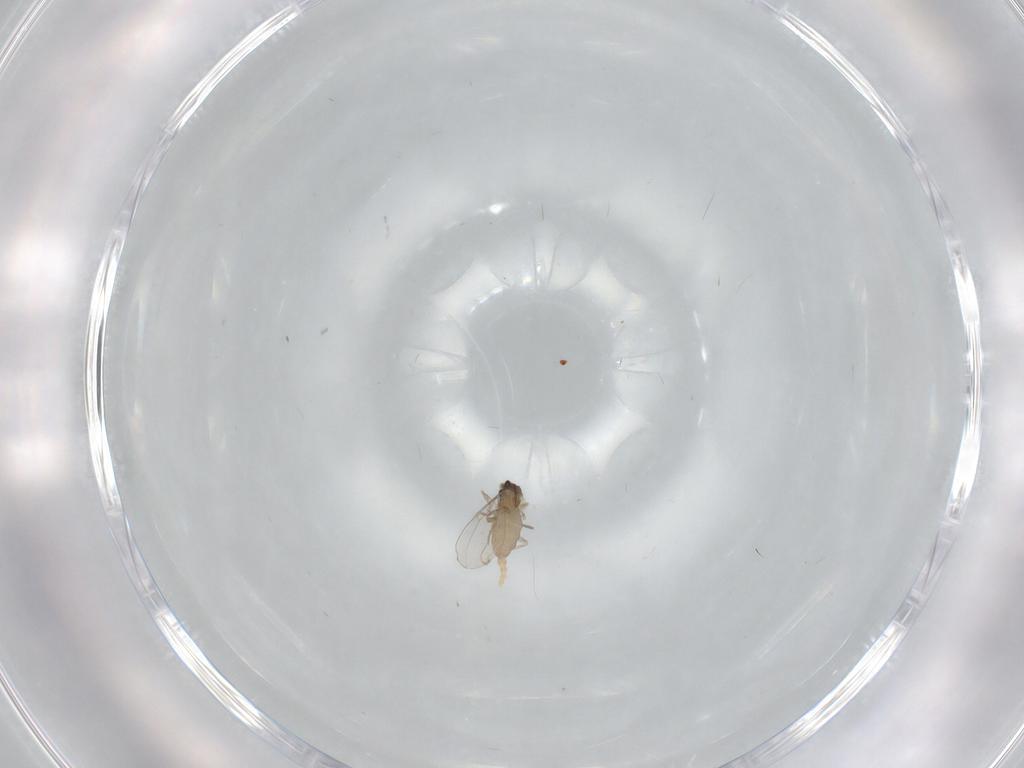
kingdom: Animalia
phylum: Arthropoda
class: Insecta
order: Diptera
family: Cecidomyiidae
